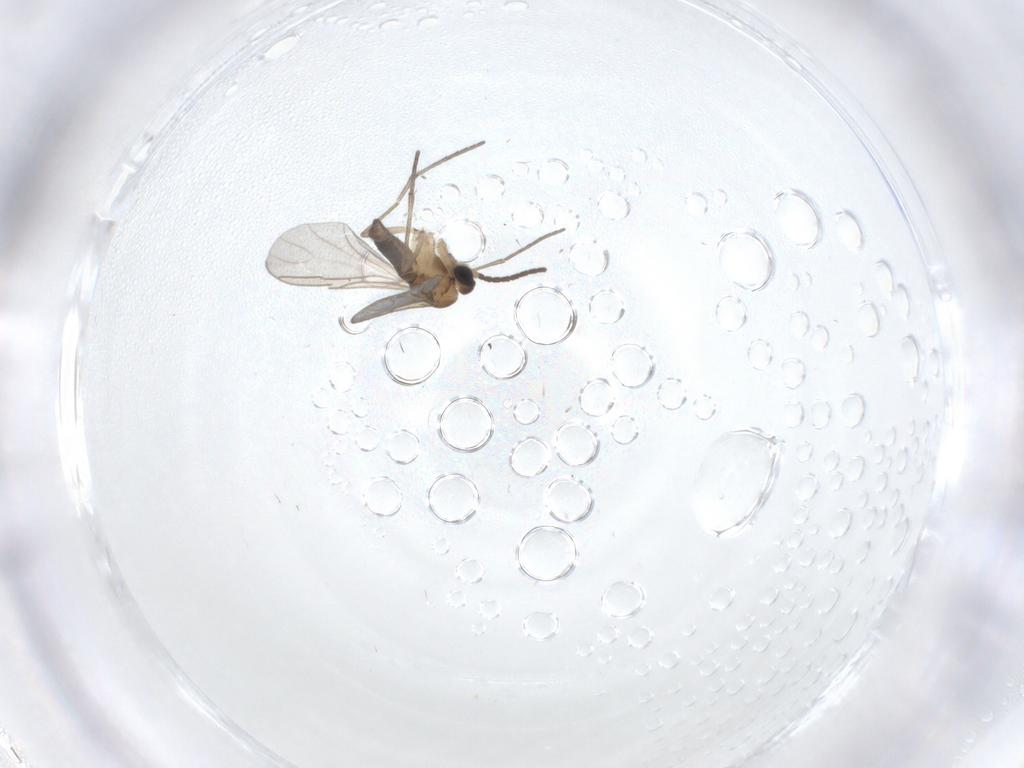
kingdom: Animalia
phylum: Arthropoda
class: Insecta
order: Diptera
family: Sciaridae
